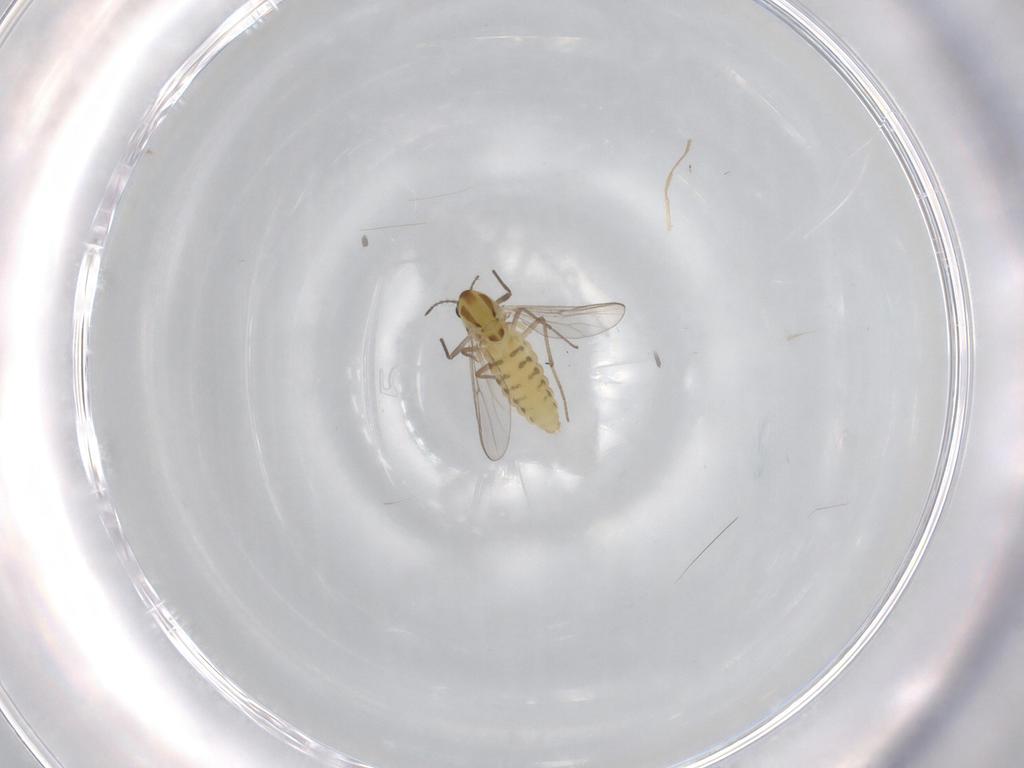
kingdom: Animalia
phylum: Arthropoda
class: Insecta
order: Diptera
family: Chironomidae
